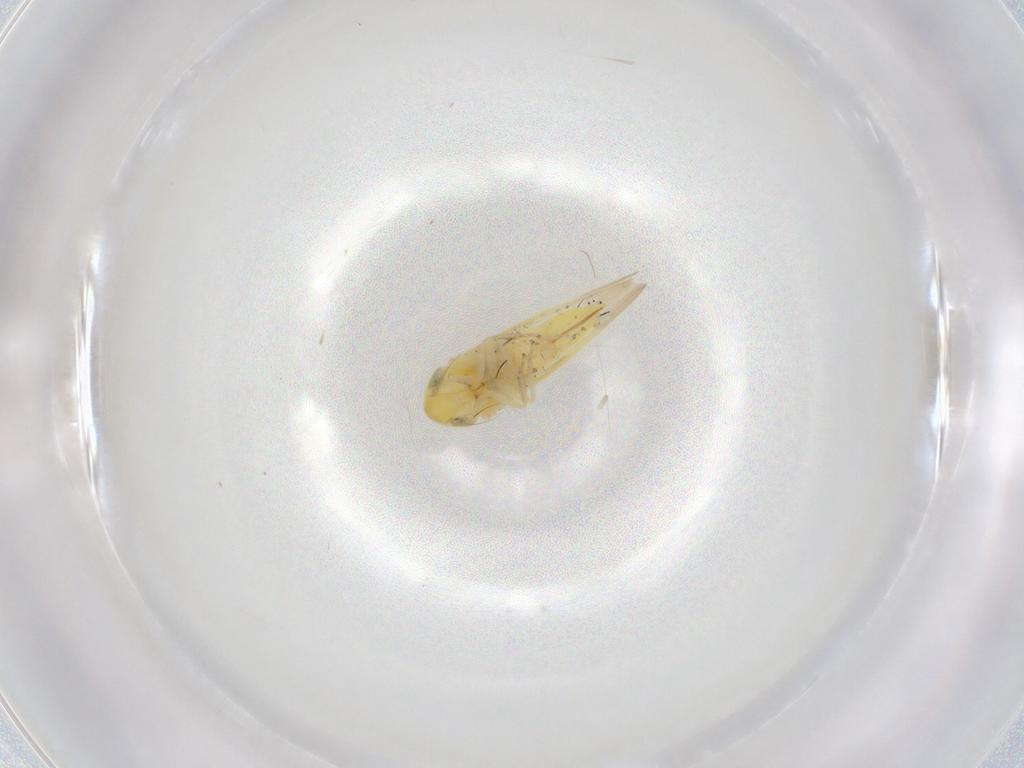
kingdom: Animalia
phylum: Arthropoda
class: Insecta
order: Hemiptera
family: Cicadellidae
